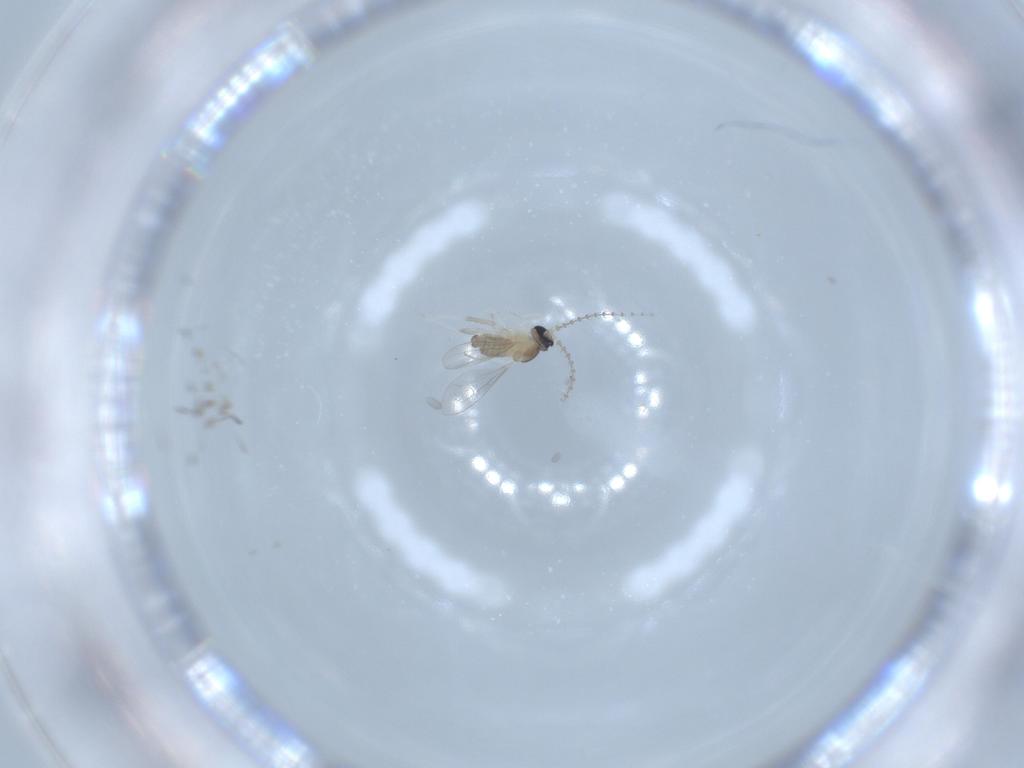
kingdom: Animalia
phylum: Arthropoda
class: Insecta
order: Diptera
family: Cecidomyiidae
